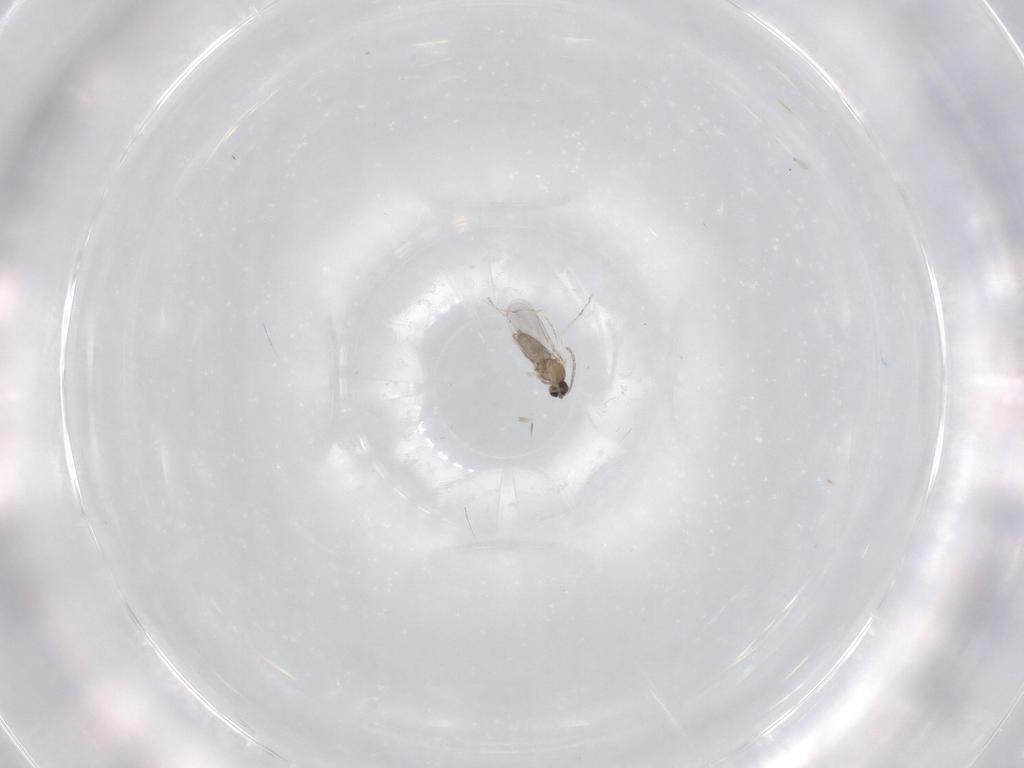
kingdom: Animalia
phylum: Arthropoda
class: Insecta
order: Diptera
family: Cecidomyiidae
